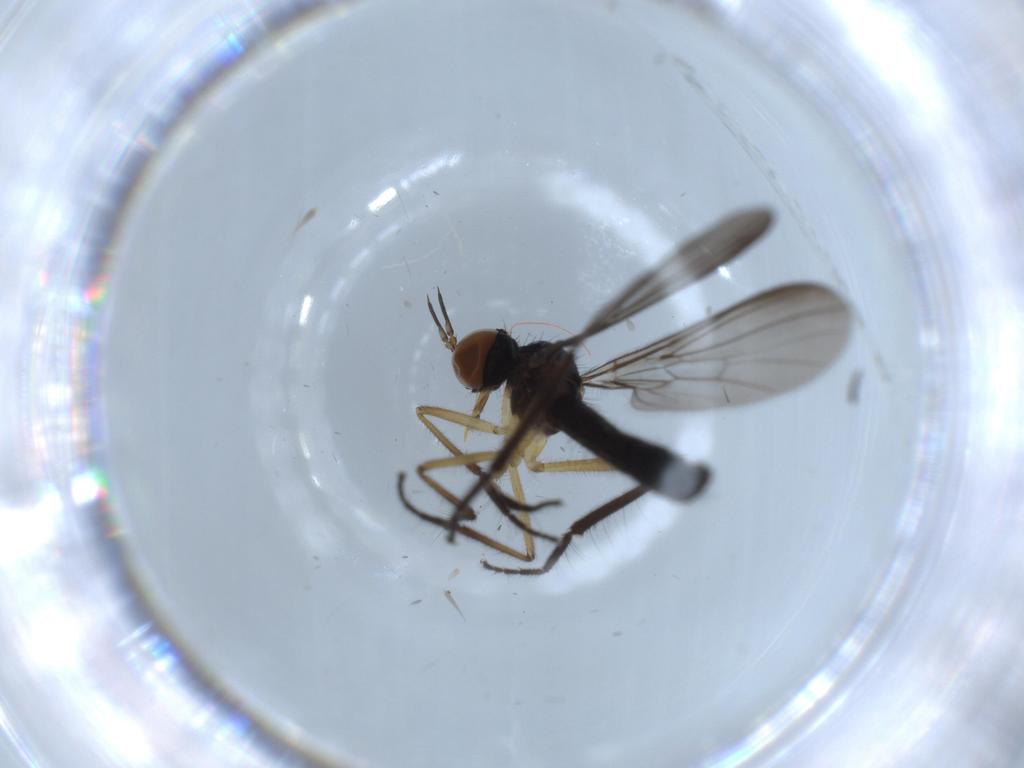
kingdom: Animalia
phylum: Arthropoda
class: Insecta
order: Diptera
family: Empididae
